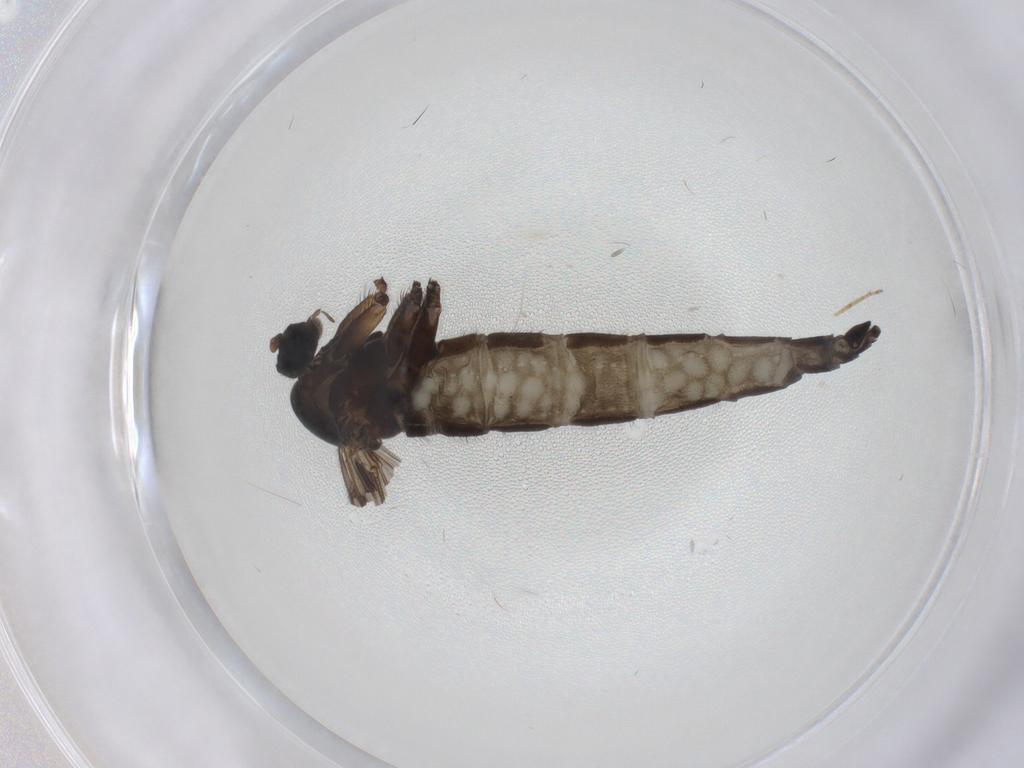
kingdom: Animalia
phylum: Arthropoda
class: Insecta
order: Diptera
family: Sciaridae
